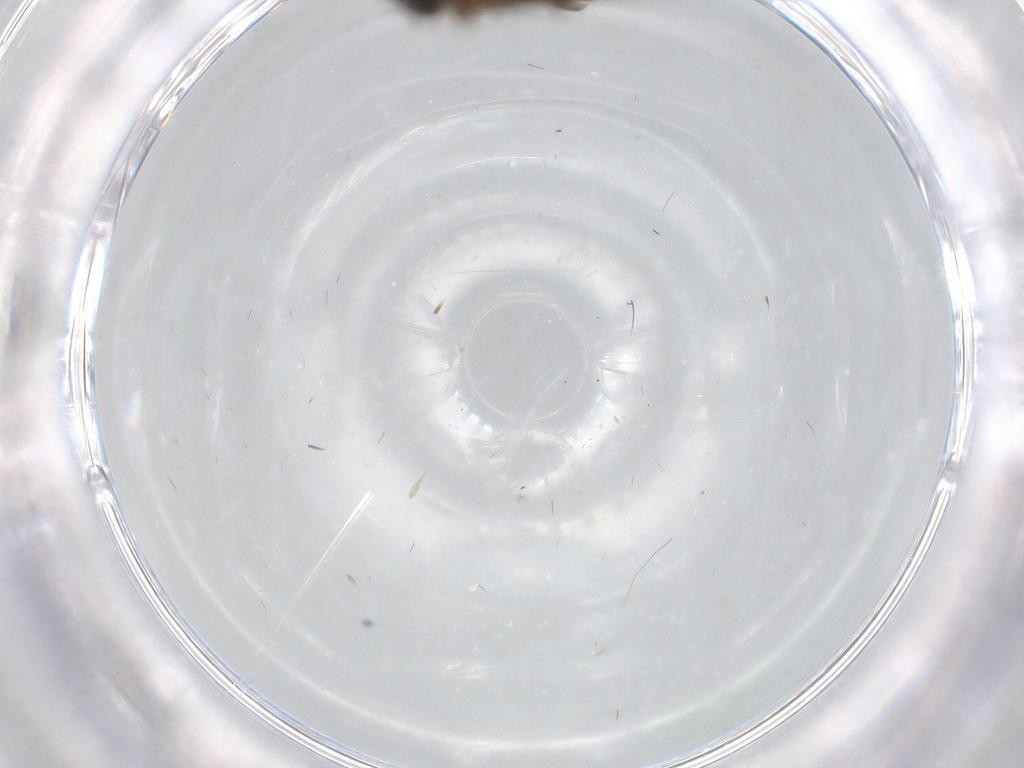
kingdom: Animalia
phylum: Arthropoda
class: Insecta
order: Diptera
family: Phoridae
